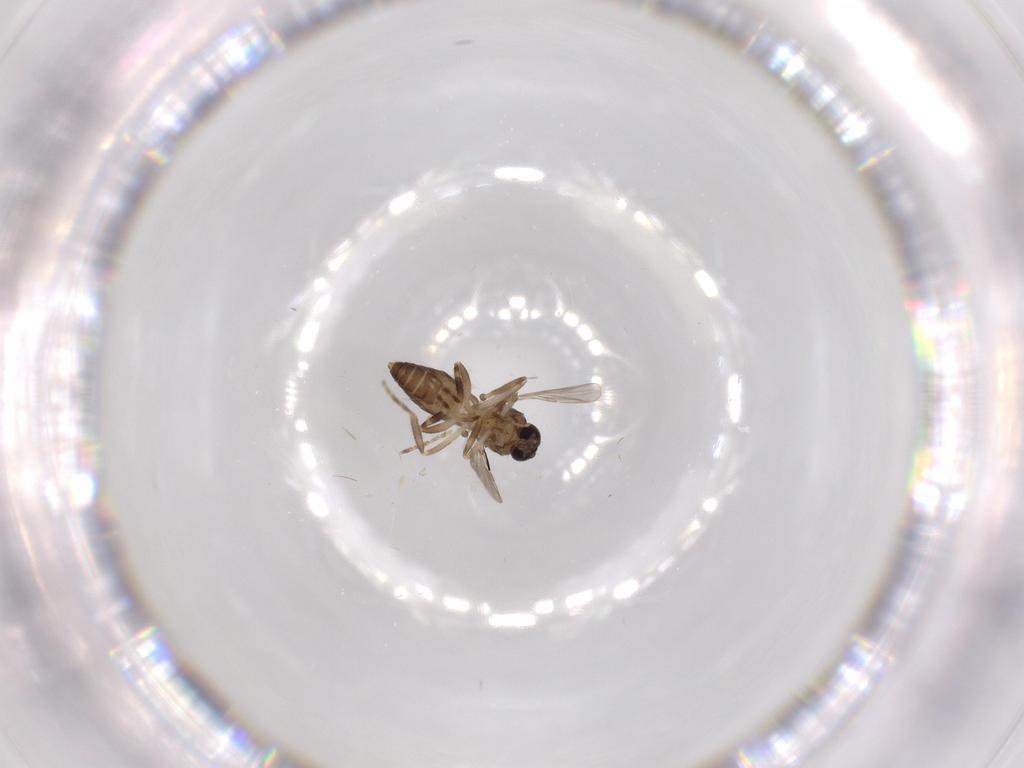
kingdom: Animalia
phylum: Arthropoda
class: Insecta
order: Diptera
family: Ceratopogonidae
